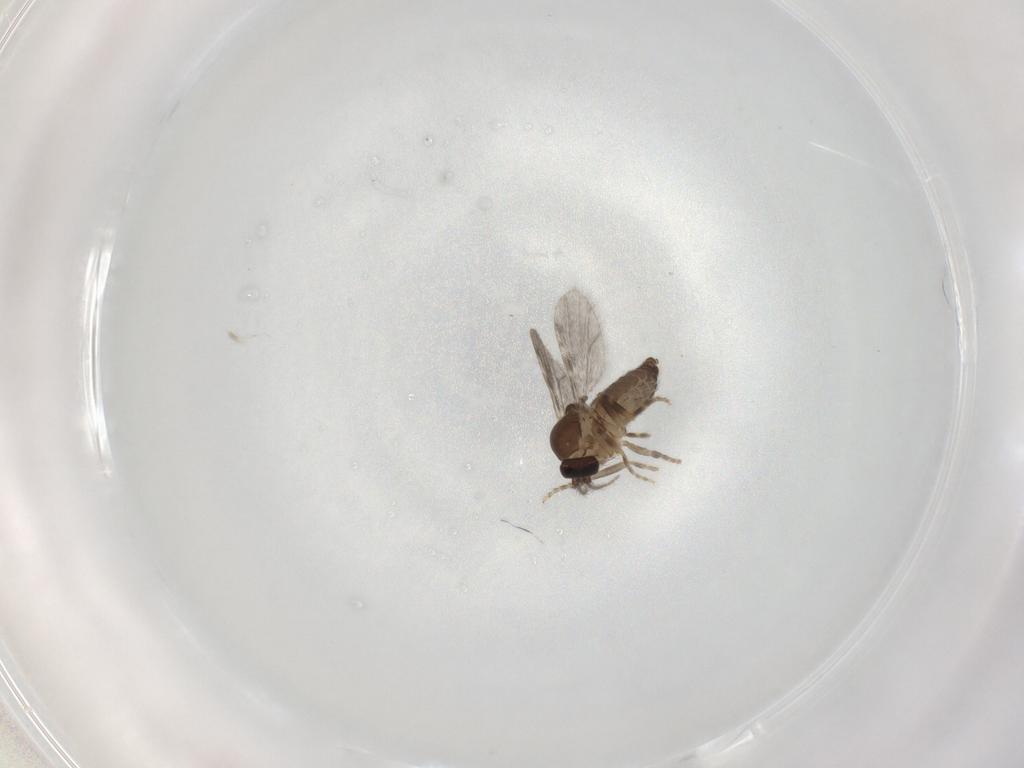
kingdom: Animalia
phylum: Arthropoda
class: Insecta
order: Diptera
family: Ceratopogonidae
